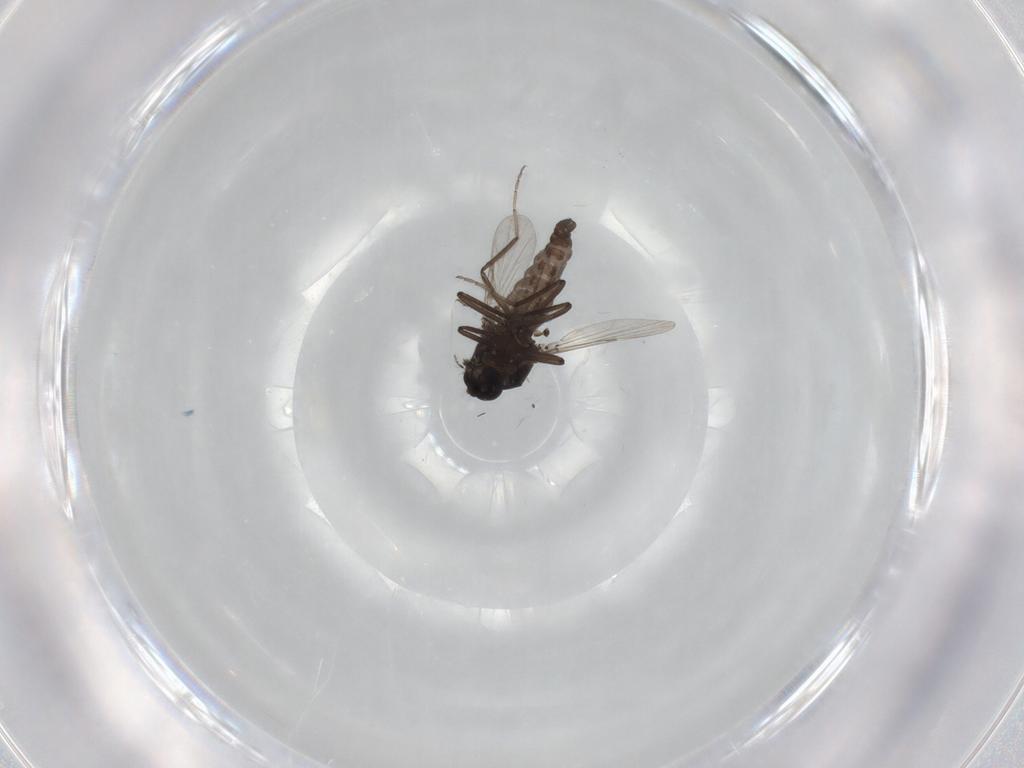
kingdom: Animalia
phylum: Arthropoda
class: Insecta
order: Diptera
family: Ceratopogonidae
